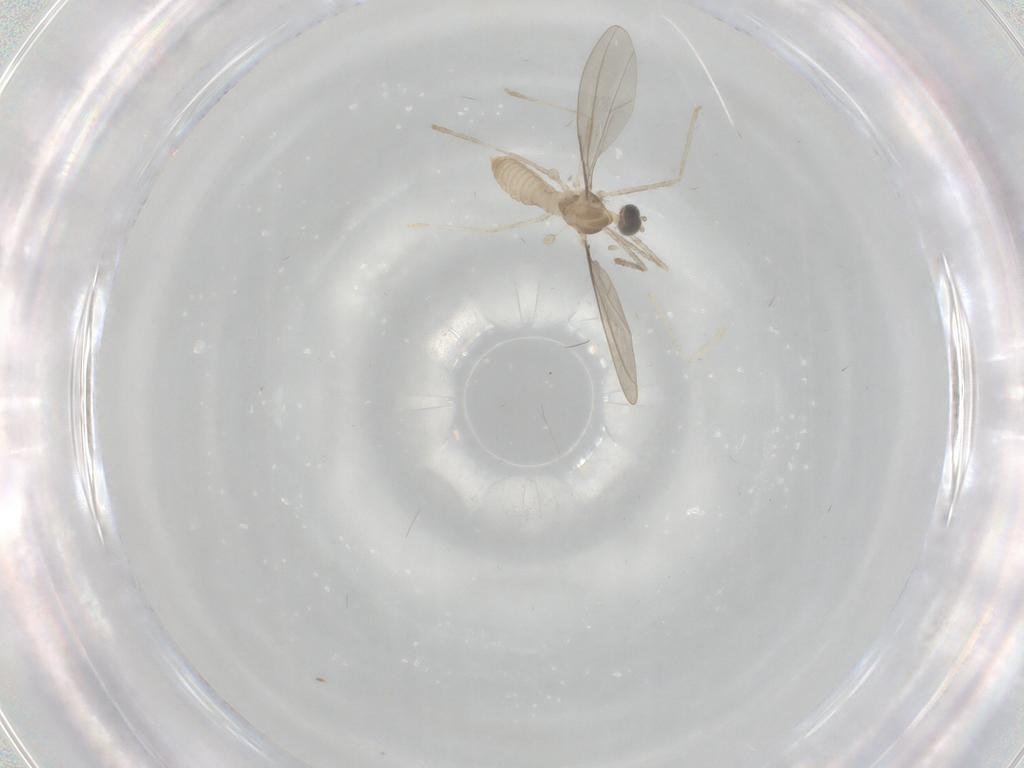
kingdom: Animalia
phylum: Arthropoda
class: Insecta
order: Diptera
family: Cecidomyiidae
